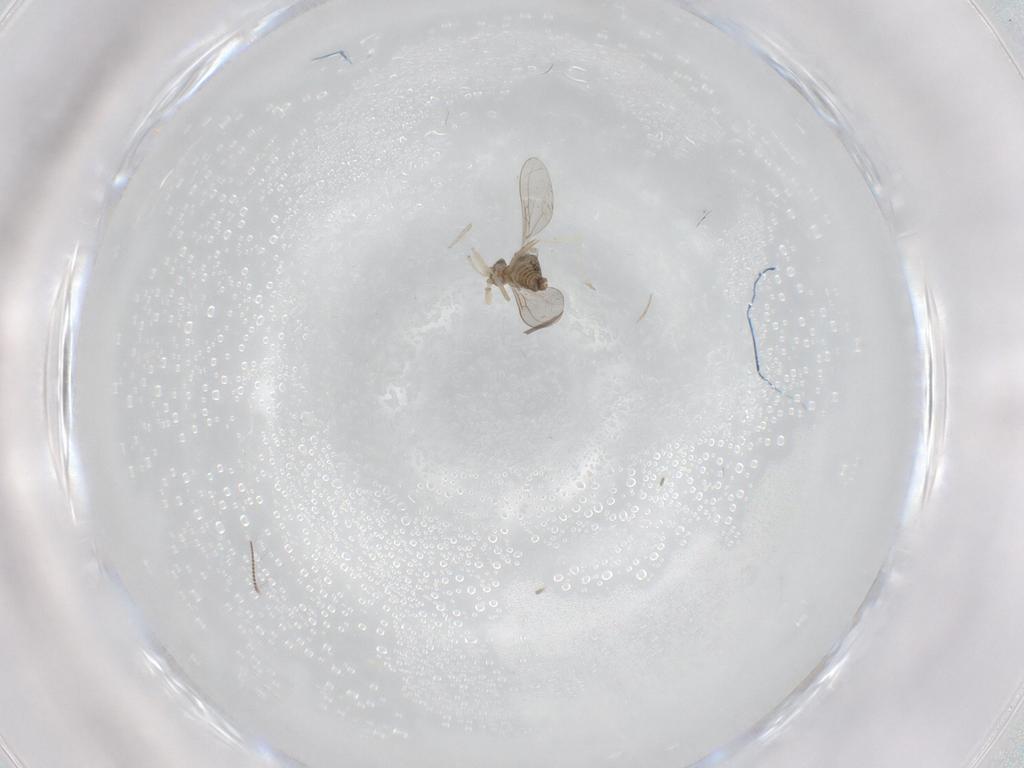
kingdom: Animalia
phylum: Arthropoda
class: Insecta
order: Diptera
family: Cecidomyiidae
